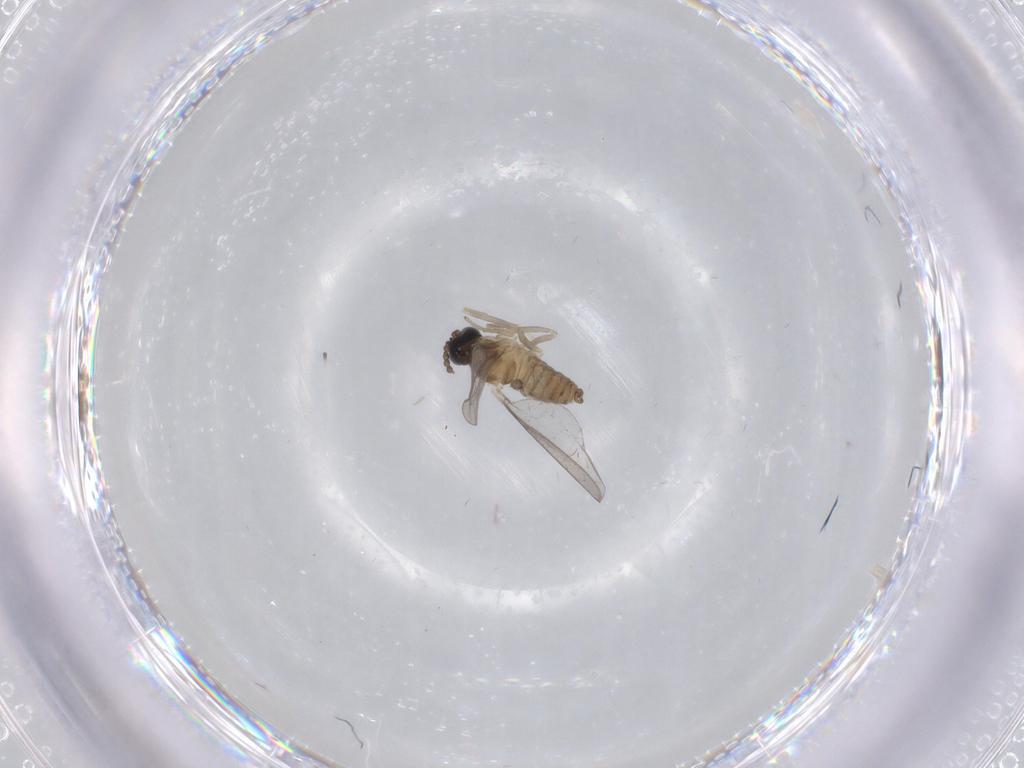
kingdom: Animalia
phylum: Arthropoda
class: Insecta
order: Diptera
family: Cecidomyiidae
